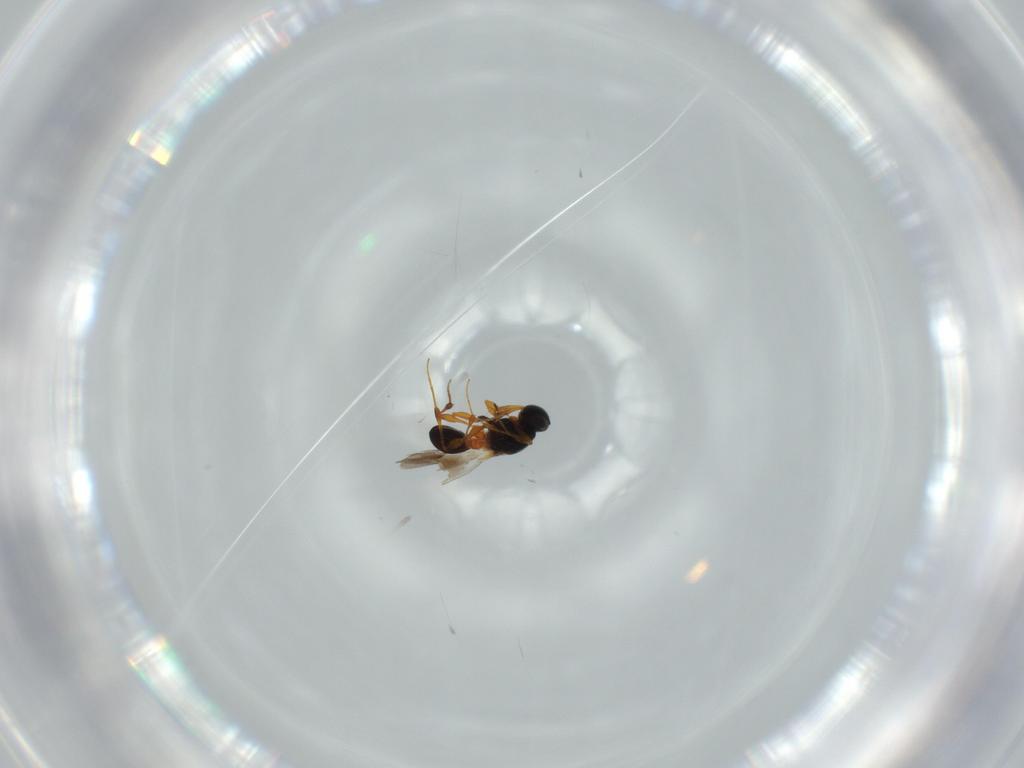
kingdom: Animalia
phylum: Arthropoda
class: Insecta
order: Hymenoptera
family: Platygastridae
